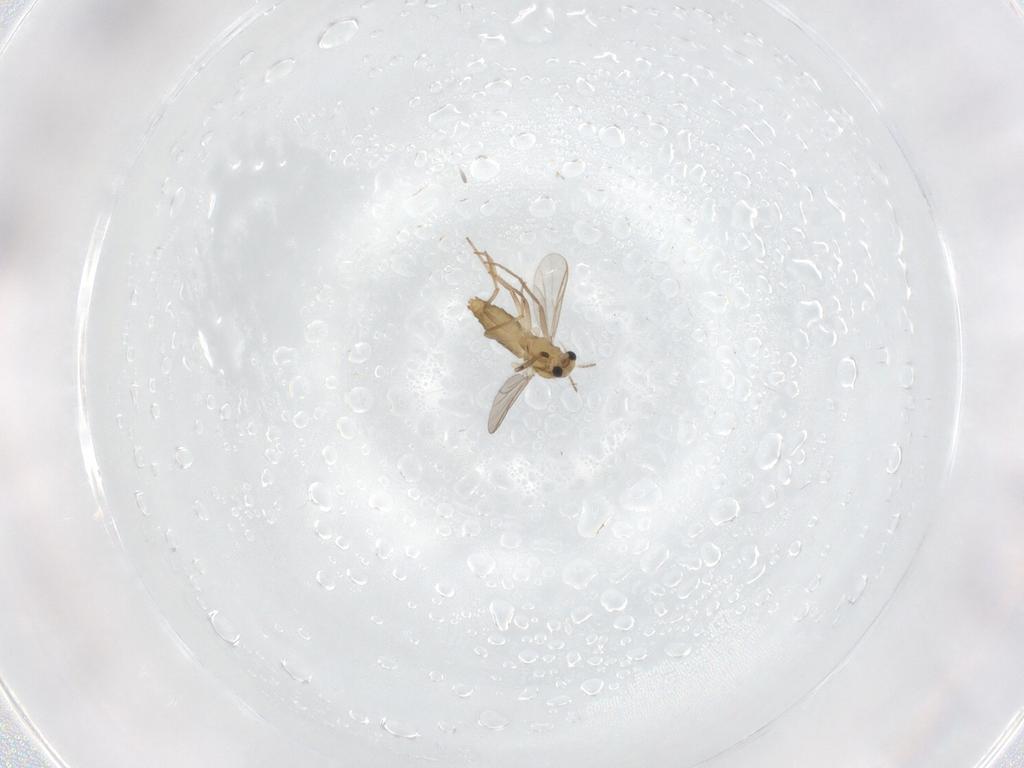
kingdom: Animalia
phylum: Arthropoda
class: Insecta
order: Diptera
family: Chironomidae
